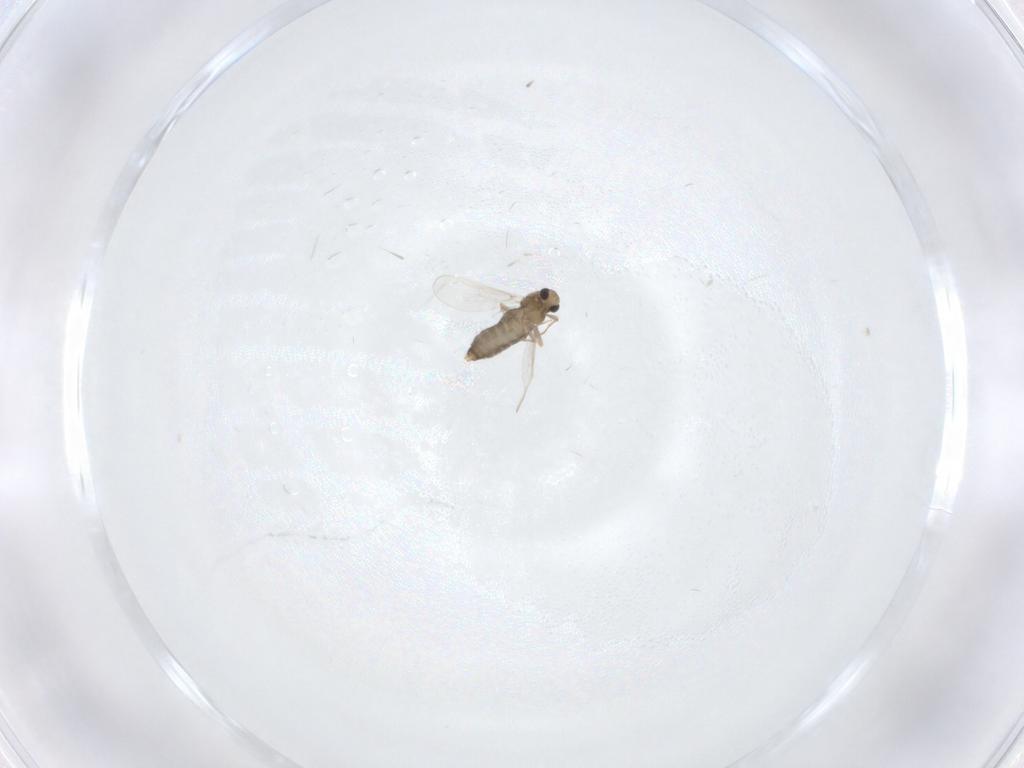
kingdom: Animalia
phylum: Arthropoda
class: Insecta
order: Diptera
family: Chironomidae
